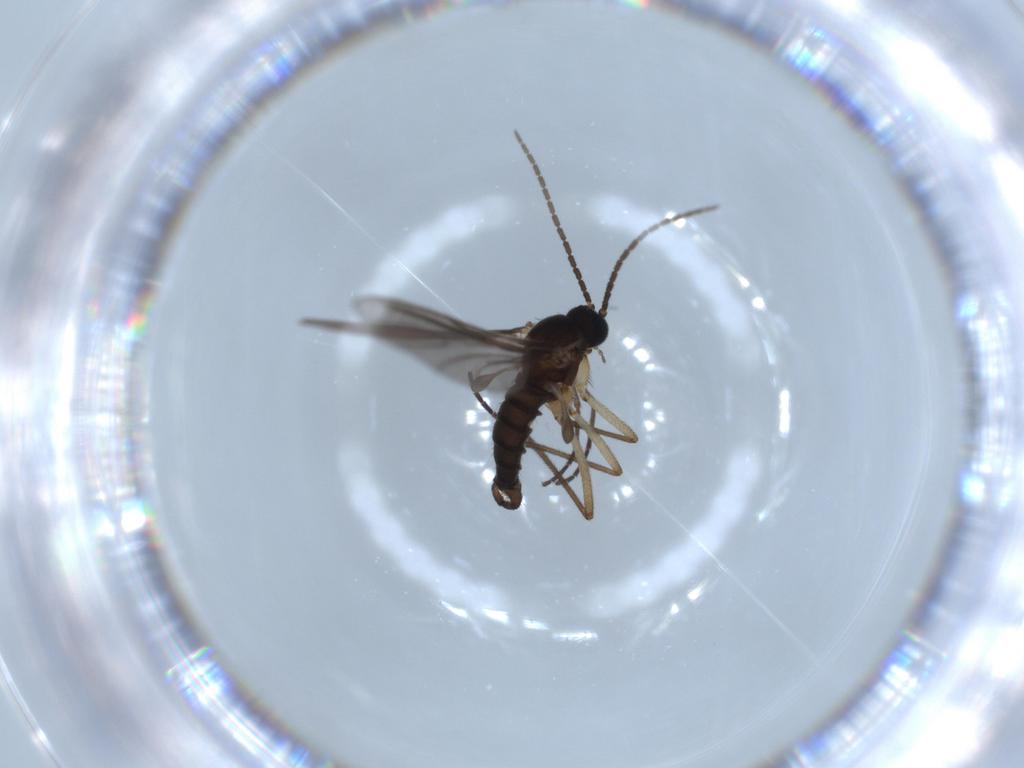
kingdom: Animalia
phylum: Arthropoda
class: Insecta
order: Diptera
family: Sciaridae
